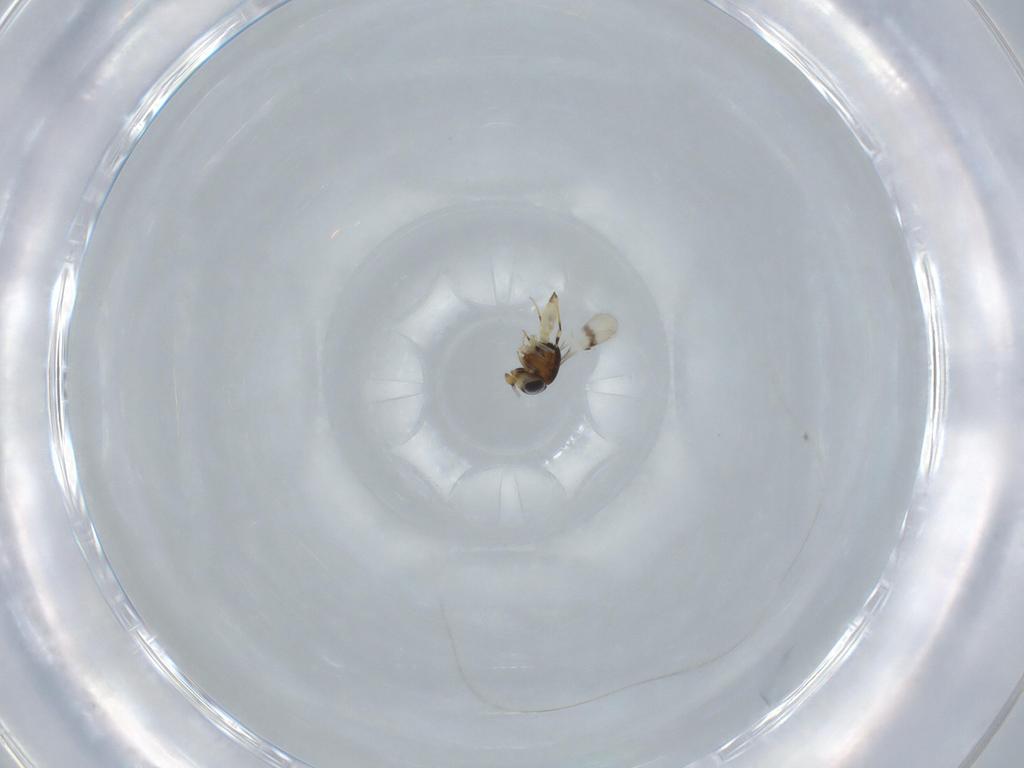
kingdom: Animalia
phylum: Arthropoda
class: Insecta
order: Hymenoptera
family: Scelionidae
